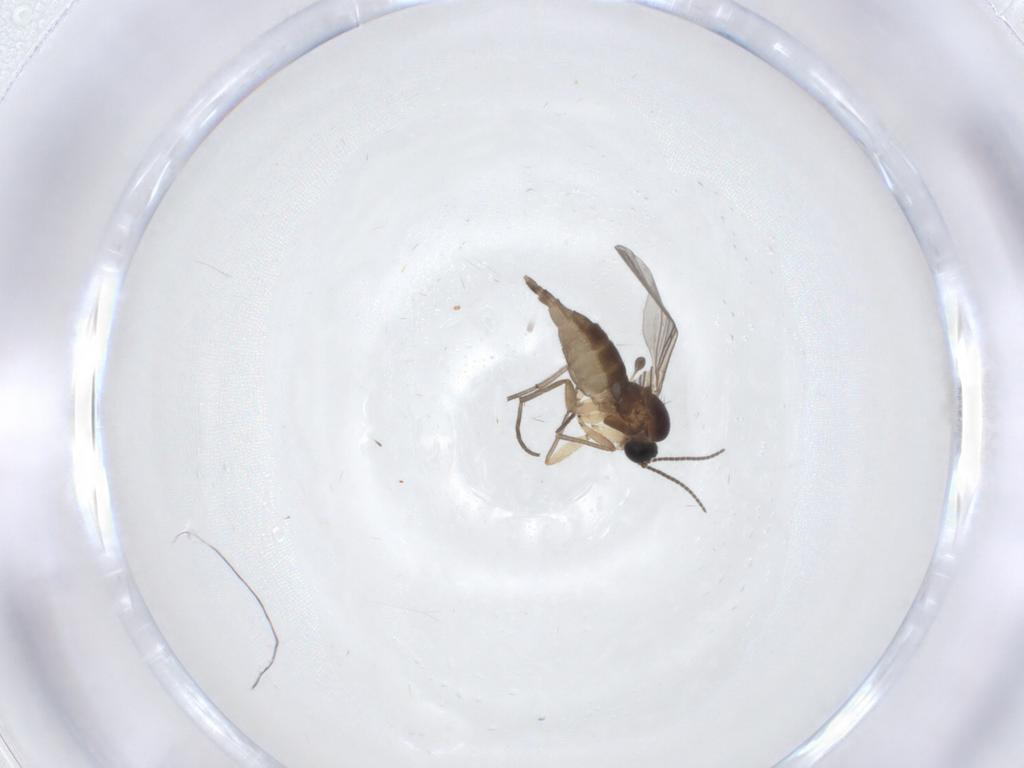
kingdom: Animalia
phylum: Arthropoda
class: Insecta
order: Diptera
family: Sciaridae
